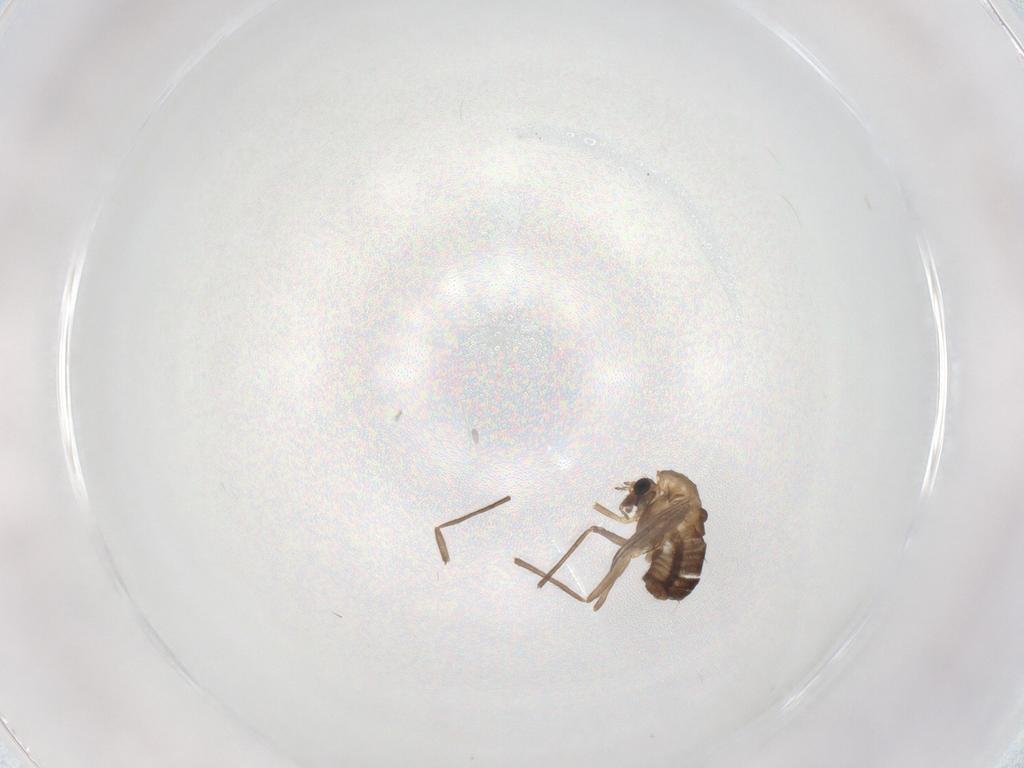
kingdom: Animalia
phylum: Arthropoda
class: Insecta
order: Diptera
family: Chironomidae
